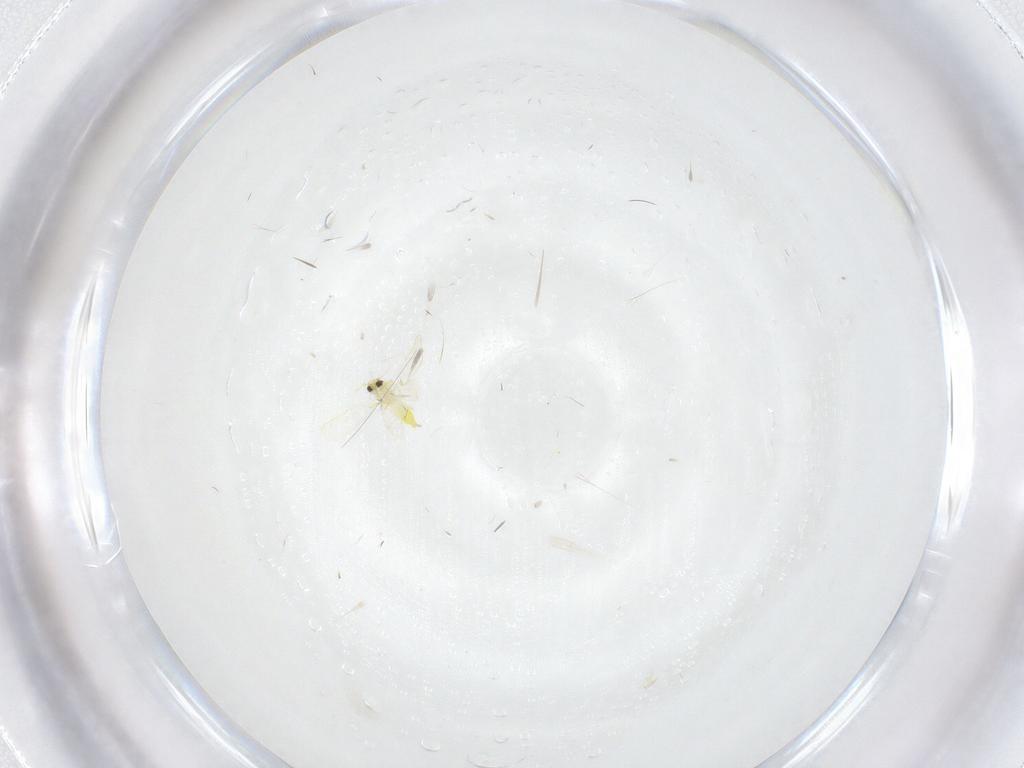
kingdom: Animalia
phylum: Arthropoda
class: Insecta
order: Hemiptera
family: Aleyrodidae
